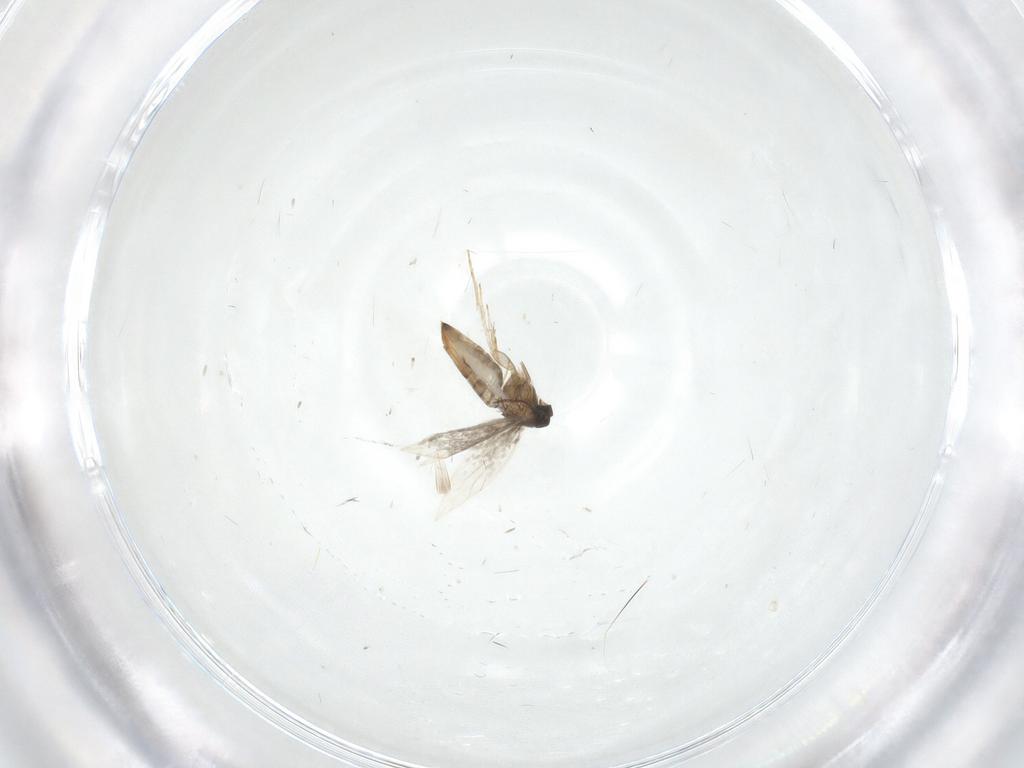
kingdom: Animalia
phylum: Arthropoda
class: Insecta
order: Lepidoptera
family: Heliozelidae
